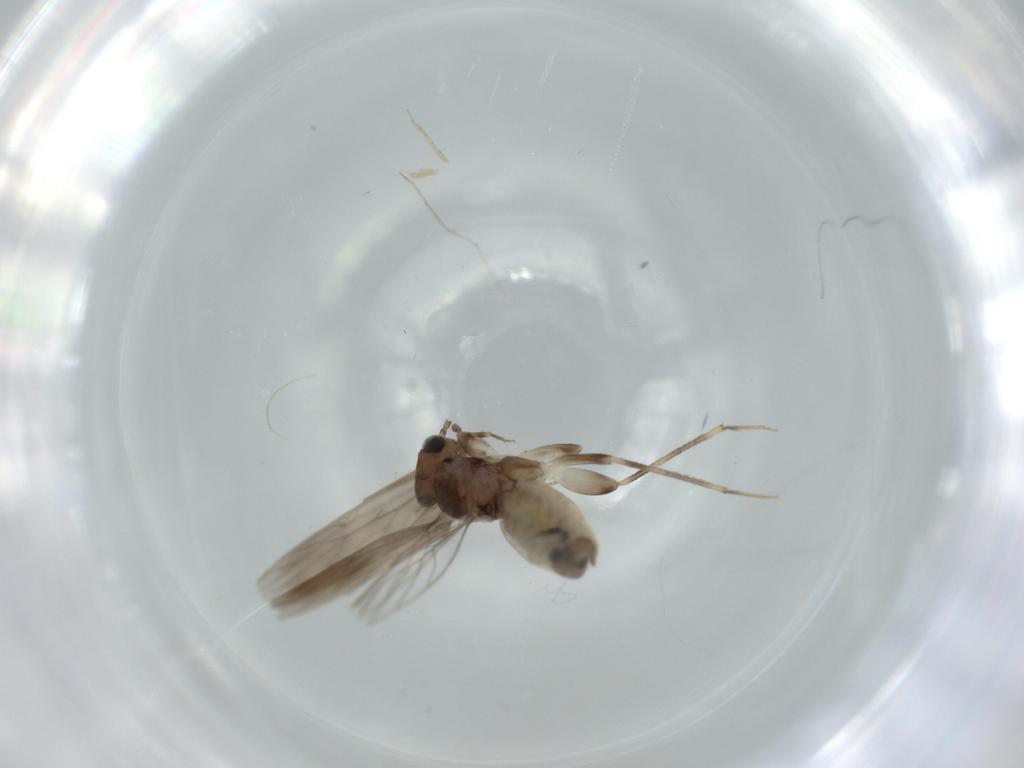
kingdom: Animalia
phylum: Arthropoda
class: Insecta
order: Psocodea
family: Lepidopsocidae
